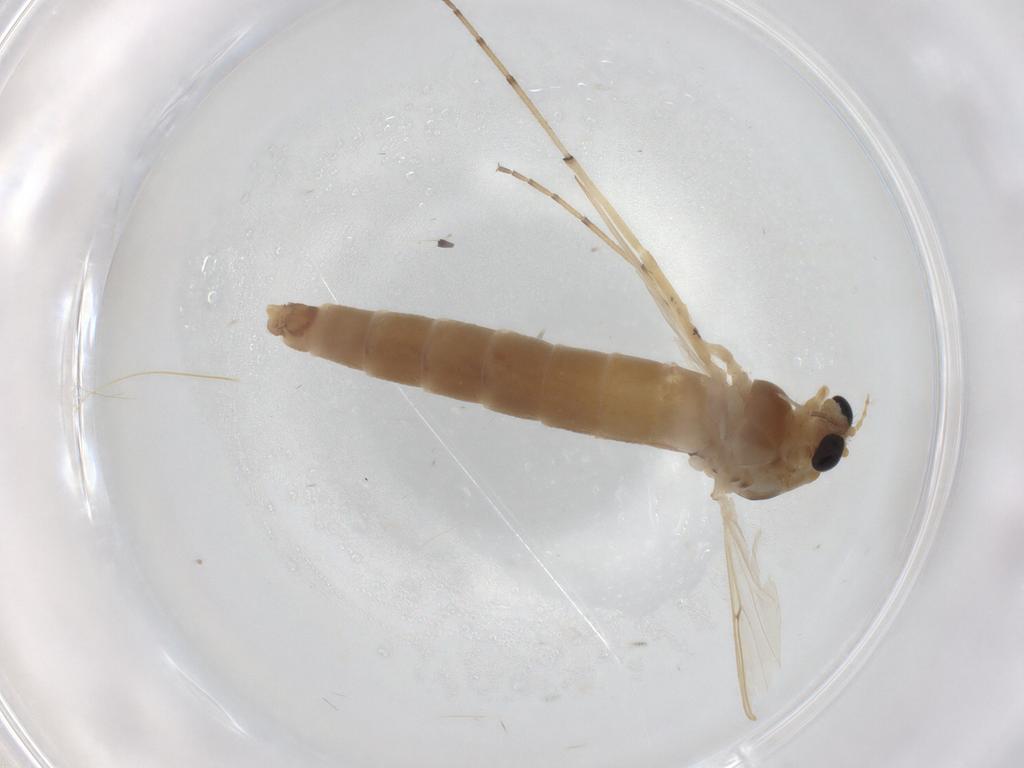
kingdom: Animalia
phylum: Arthropoda
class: Insecta
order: Diptera
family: Chironomidae
